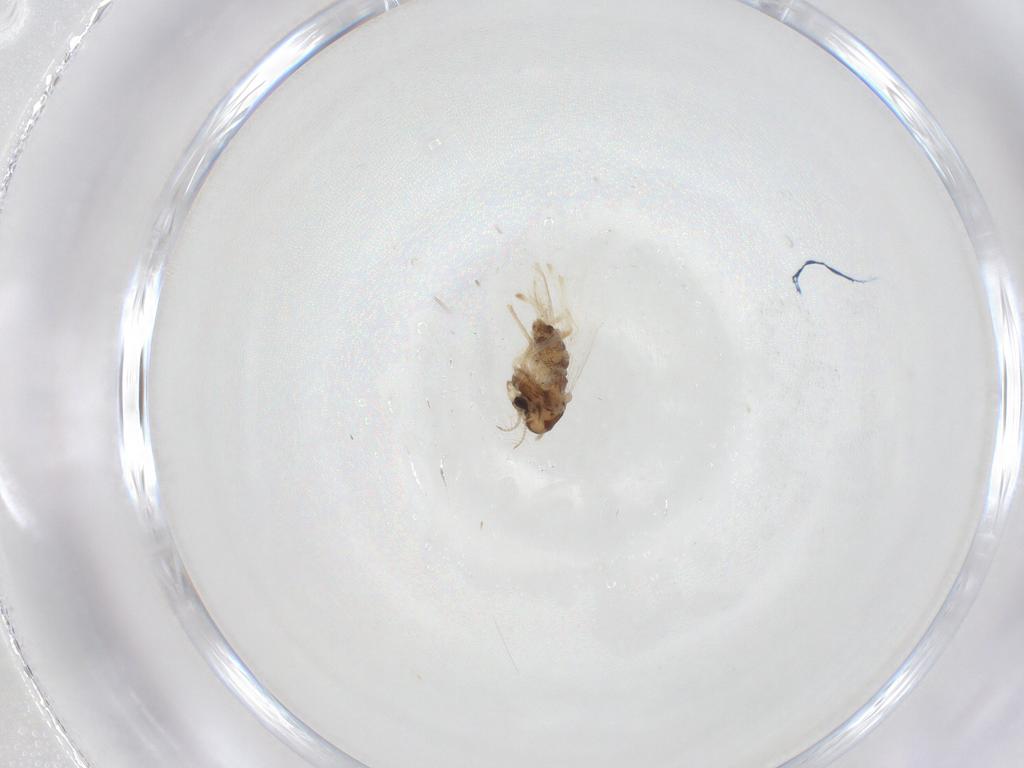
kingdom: Animalia
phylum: Arthropoda
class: Insecta
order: Diptera
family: Chironomidae
